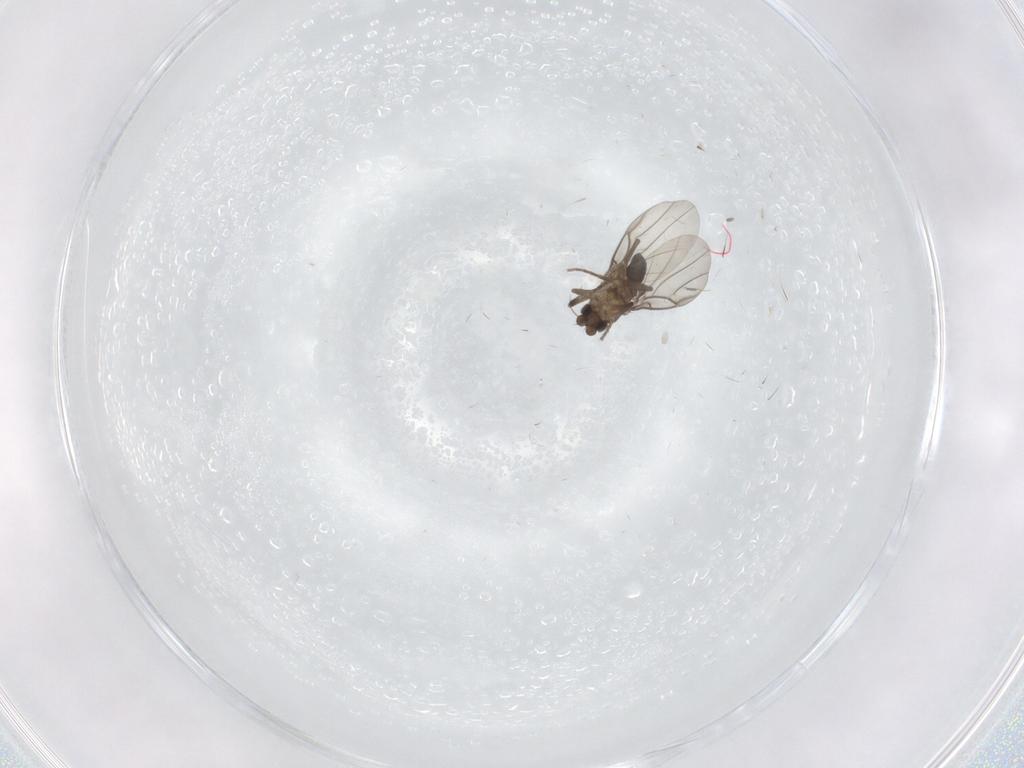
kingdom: Animalia
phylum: Arthropoda
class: Insecta
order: Diptera
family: Phoridae
